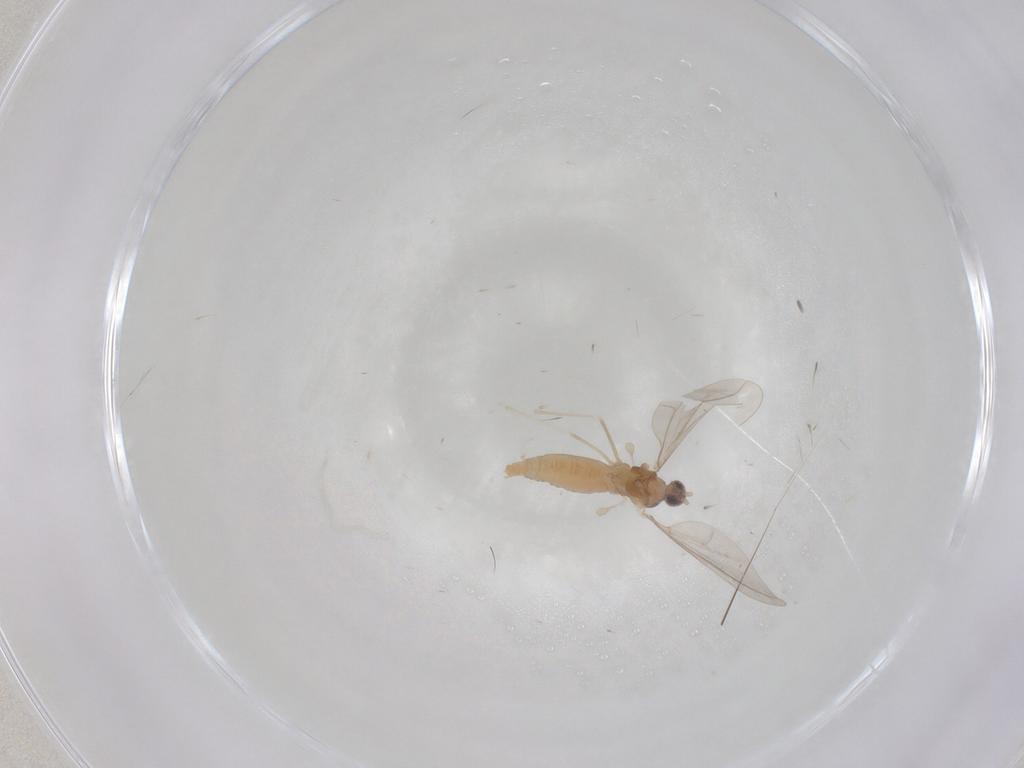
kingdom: Animalia
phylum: Arthropoda
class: Insecta
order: Diptera
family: Cecidomyiidae
